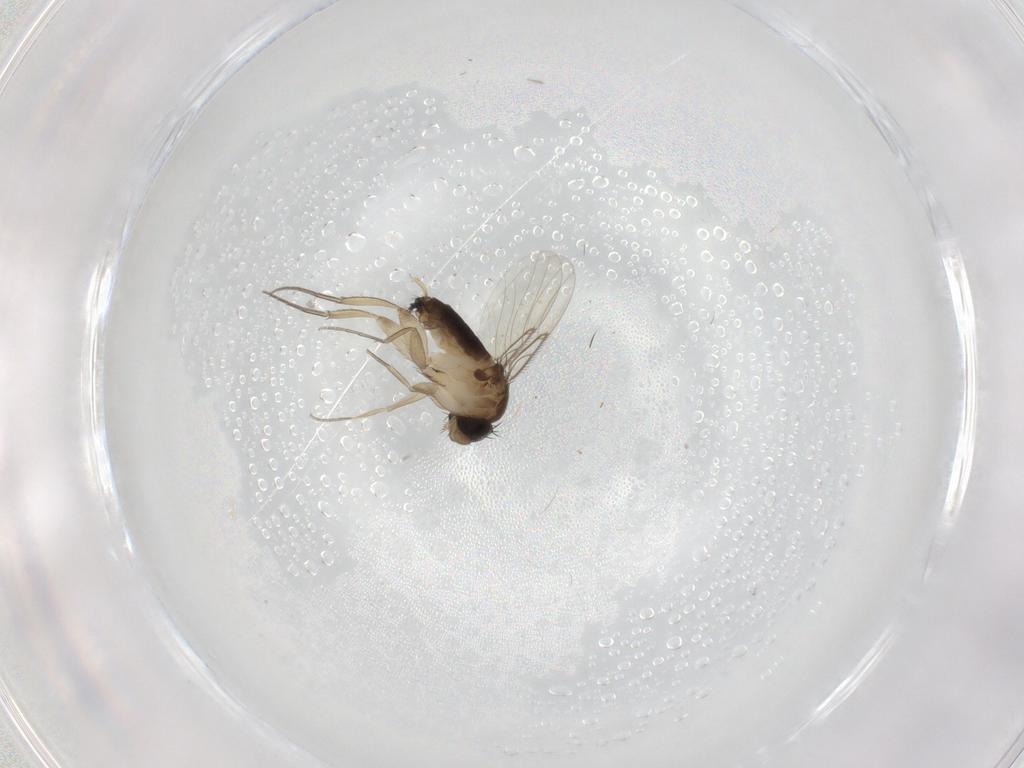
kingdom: Animalia
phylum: Arthropoda
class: Insecta
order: Diptera
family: Phoridae
